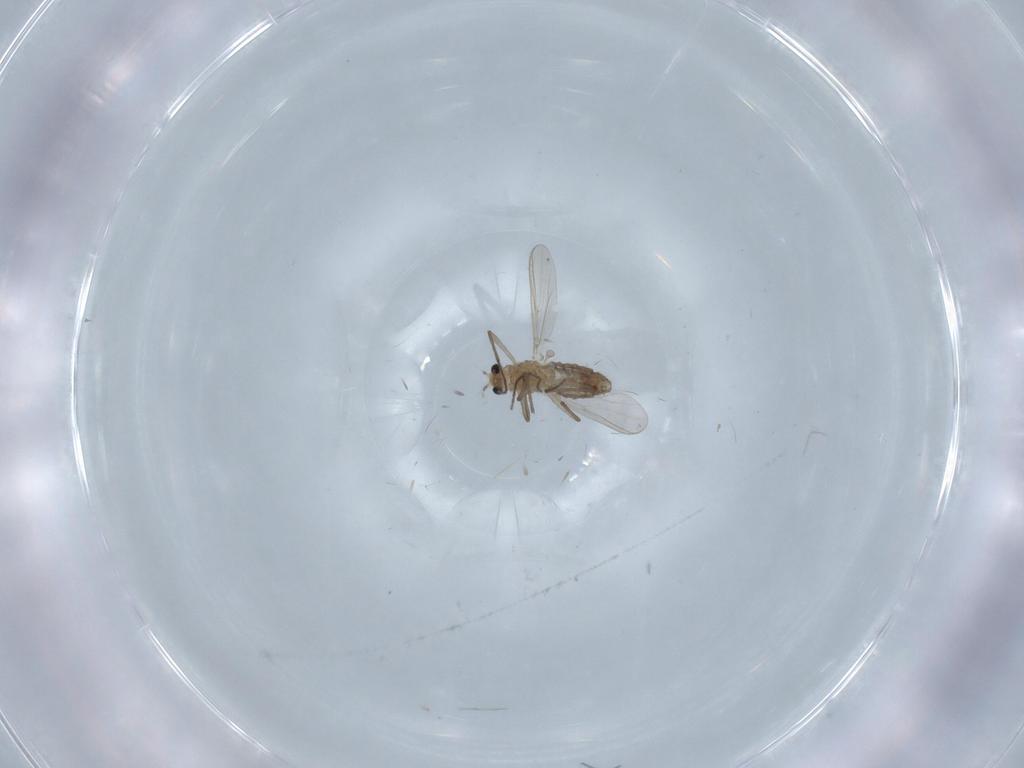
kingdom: Animalia
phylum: Arthropoda
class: Insecta
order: Diptera
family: Chironomidae
